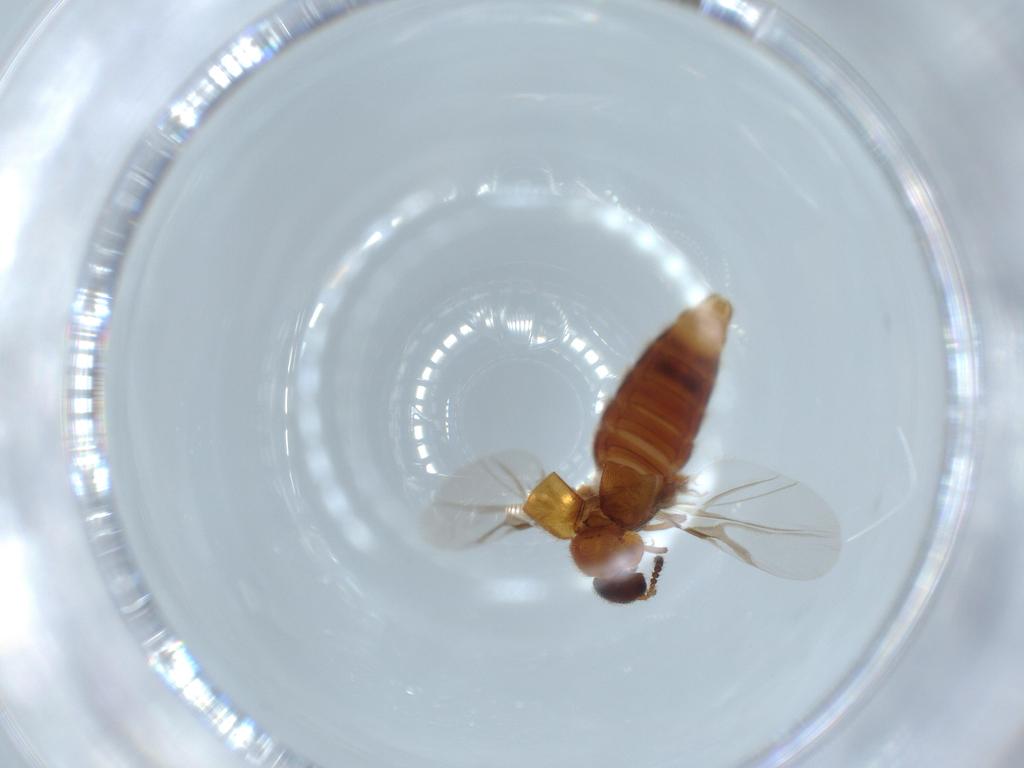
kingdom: Animalia
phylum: Arthropoda
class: Insecta
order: Coleoptera
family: Staphylinidae
